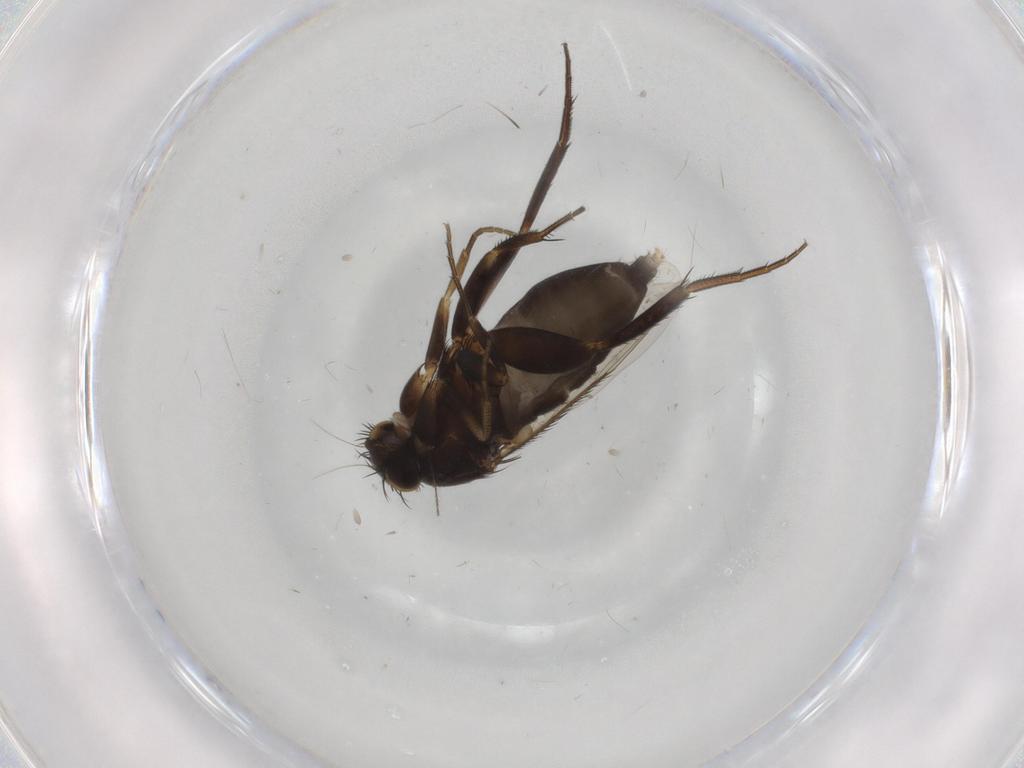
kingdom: Animalia
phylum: Arthropoda
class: Insecta
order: Diptera
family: Phoridae
